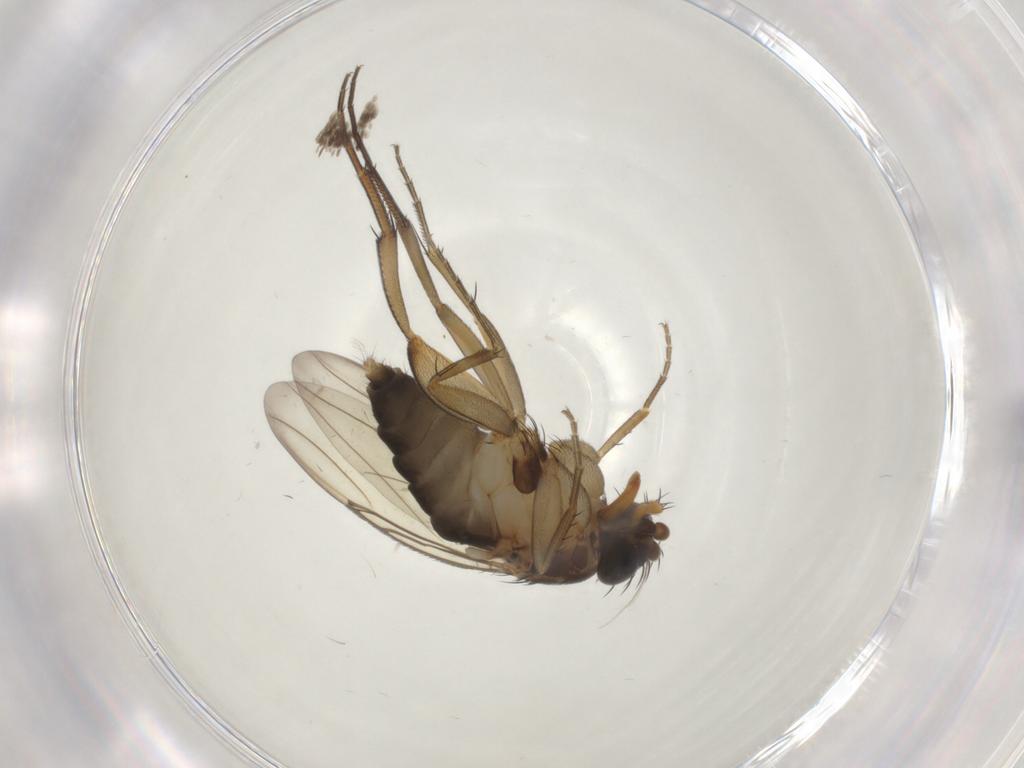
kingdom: Animalia
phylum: Arthropoda
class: Insecta
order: Diptera
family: Phoridae
